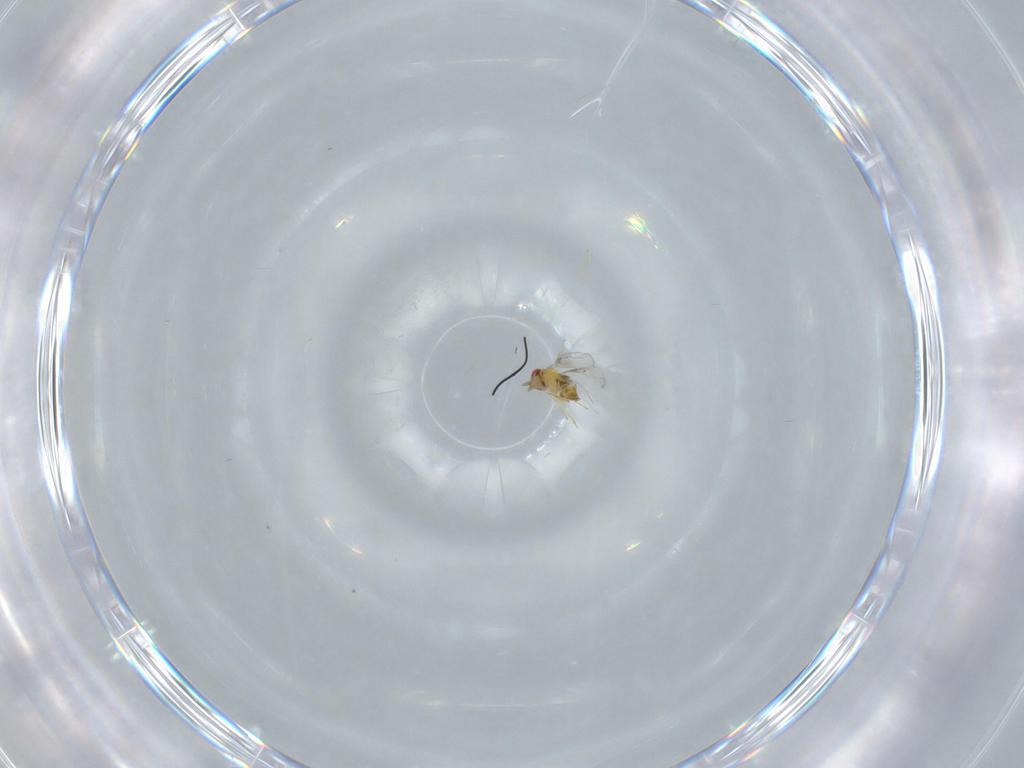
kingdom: Animalia
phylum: Arthropoda
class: Insecta
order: Hymenoptera
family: Trichogrammatidae
